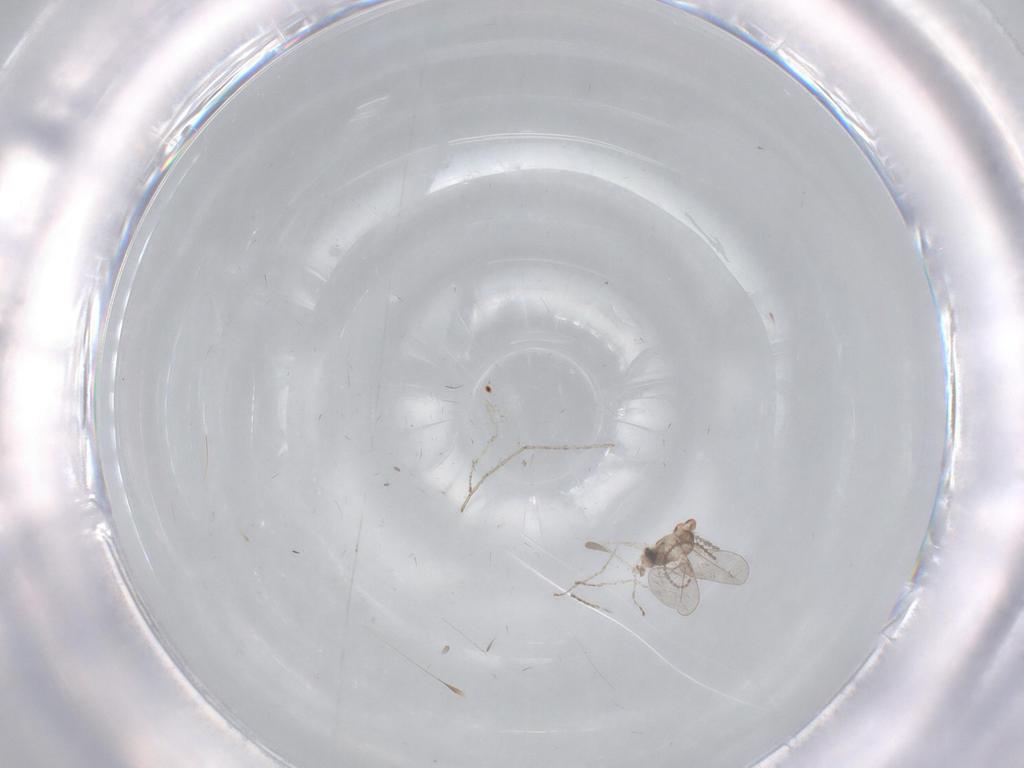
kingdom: Animalia
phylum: Arthropoda
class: Insecta
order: Diptera
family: Cecidomyiidae
